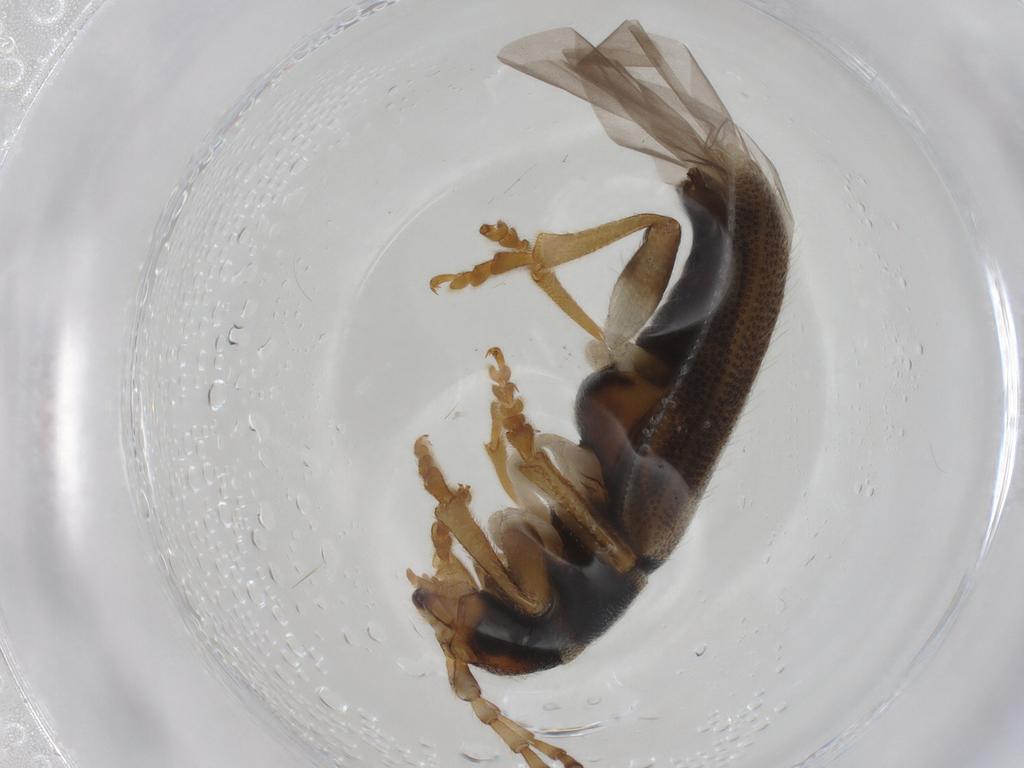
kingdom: Animalia
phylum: Arthropoda
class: Insecta
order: Coleoptera
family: Chrysomelidae
